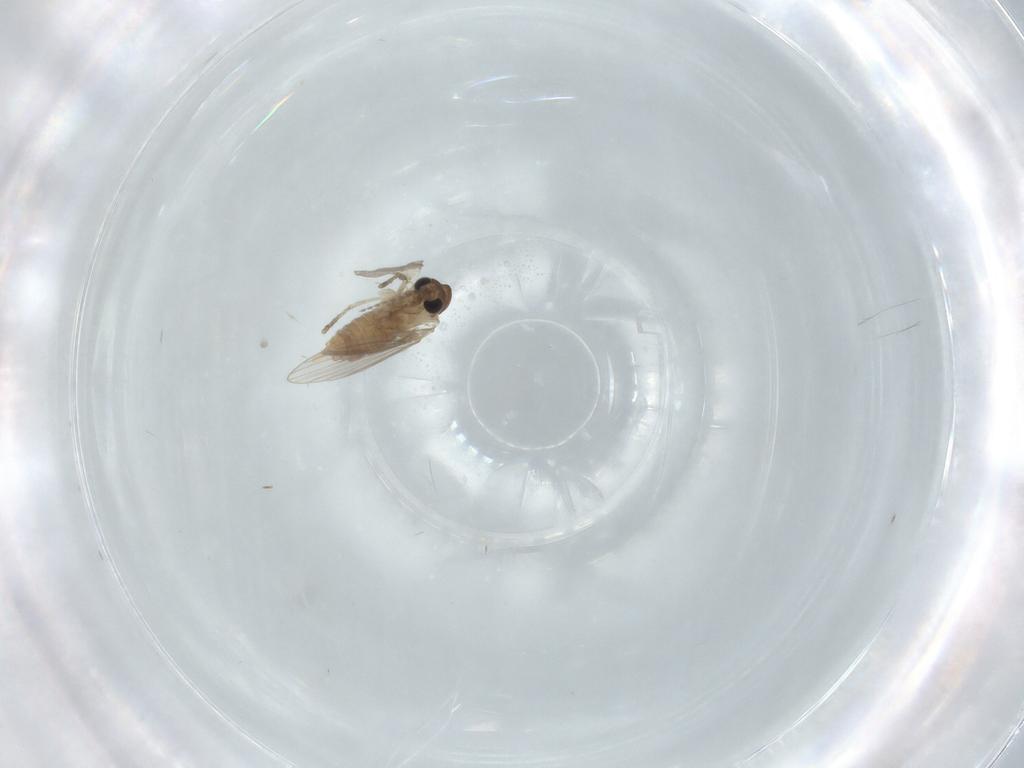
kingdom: Animalia
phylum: Arthropoda
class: Insecta
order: Diptera
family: Psychodidae
